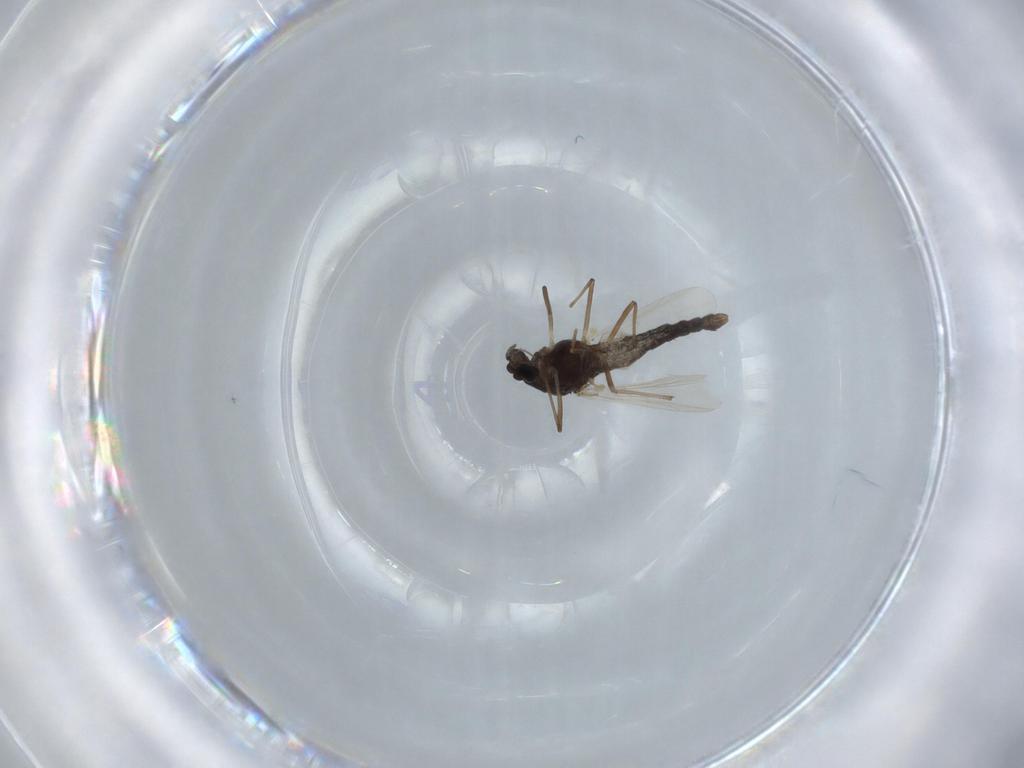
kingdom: Animalia
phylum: Arthropoda
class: Insecta
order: Diptera
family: Chironomidae
